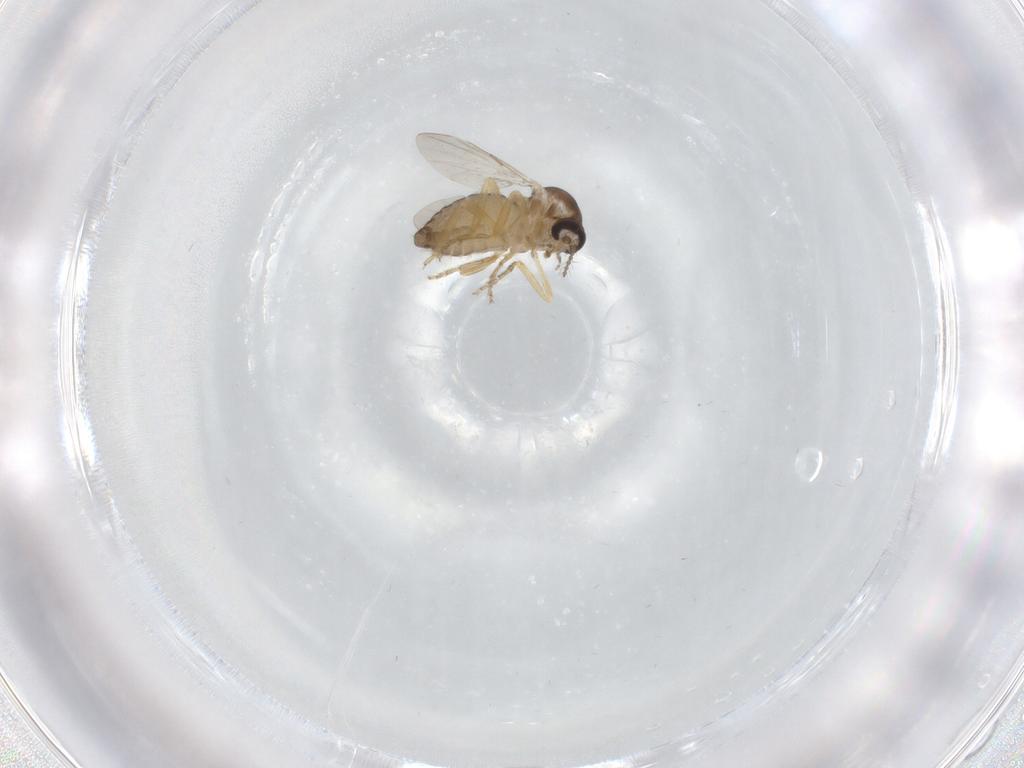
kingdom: Animalia
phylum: Arthropoda
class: Insecta
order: Diptera
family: Ceratopogonidae
